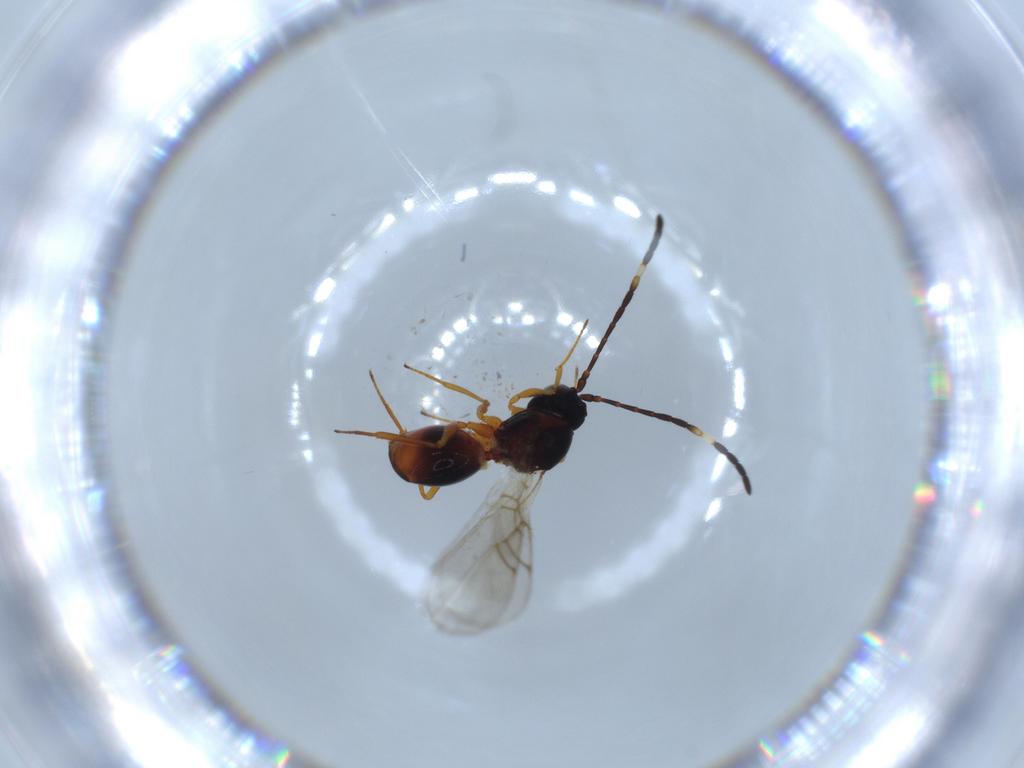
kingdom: Animalia
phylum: Arthropoda
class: Insecta
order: Hymenoptera
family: Figitidae
